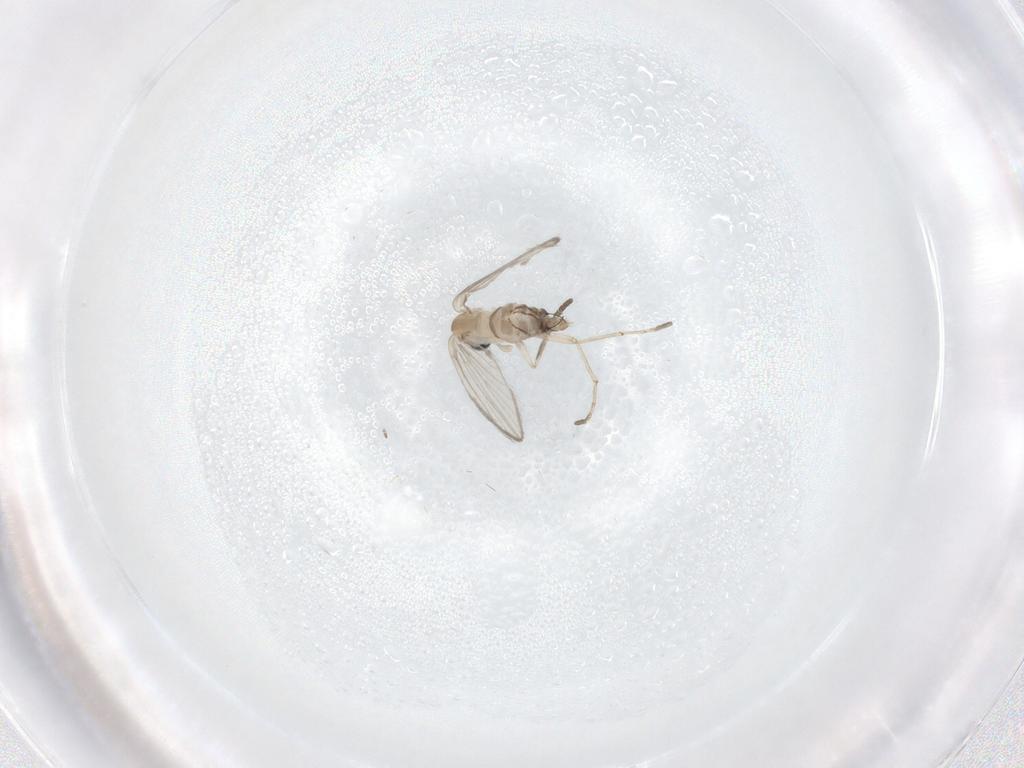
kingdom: Animalia
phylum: Arthropoda
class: Insecta
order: Diptera
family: Psychodidae
